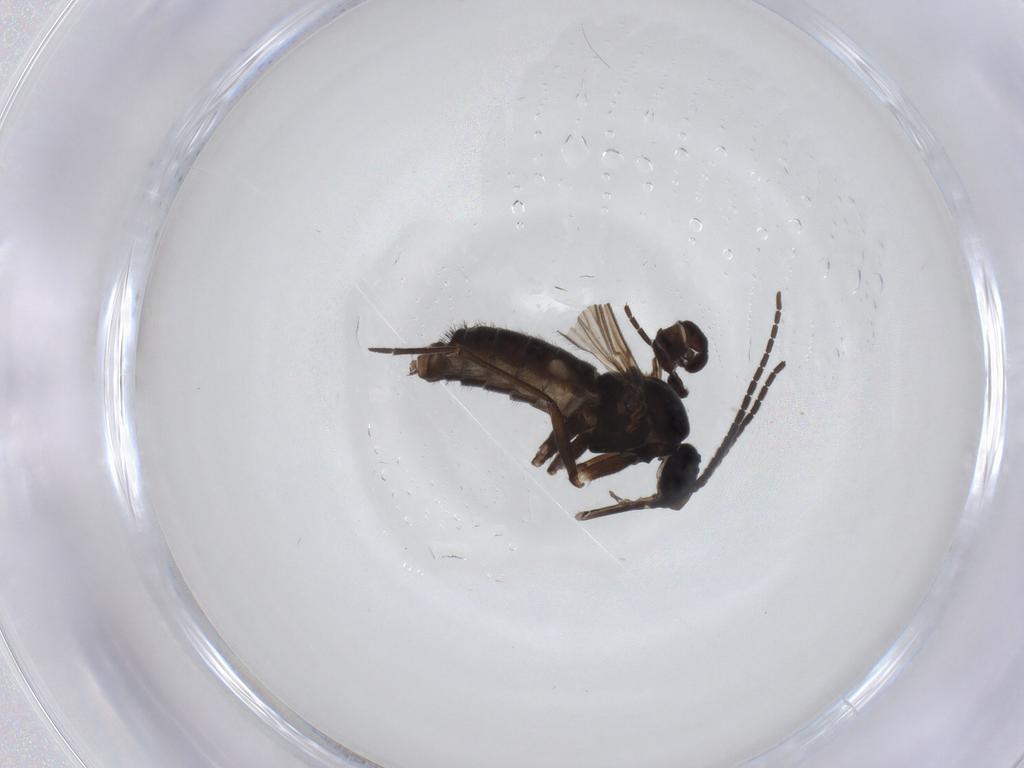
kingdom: Animalia
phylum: Arthropoda
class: Insecta
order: Diptera
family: Sciaridae
